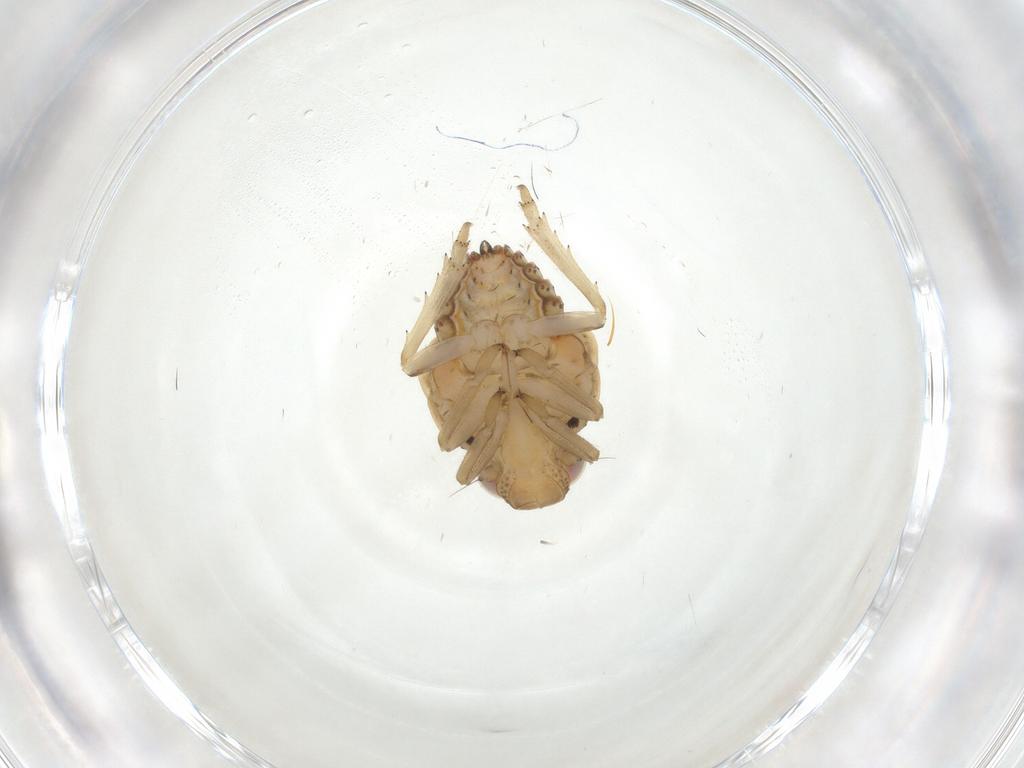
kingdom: Animalia
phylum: Arthropoda
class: Insecta
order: Hemiptera
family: Issidae
